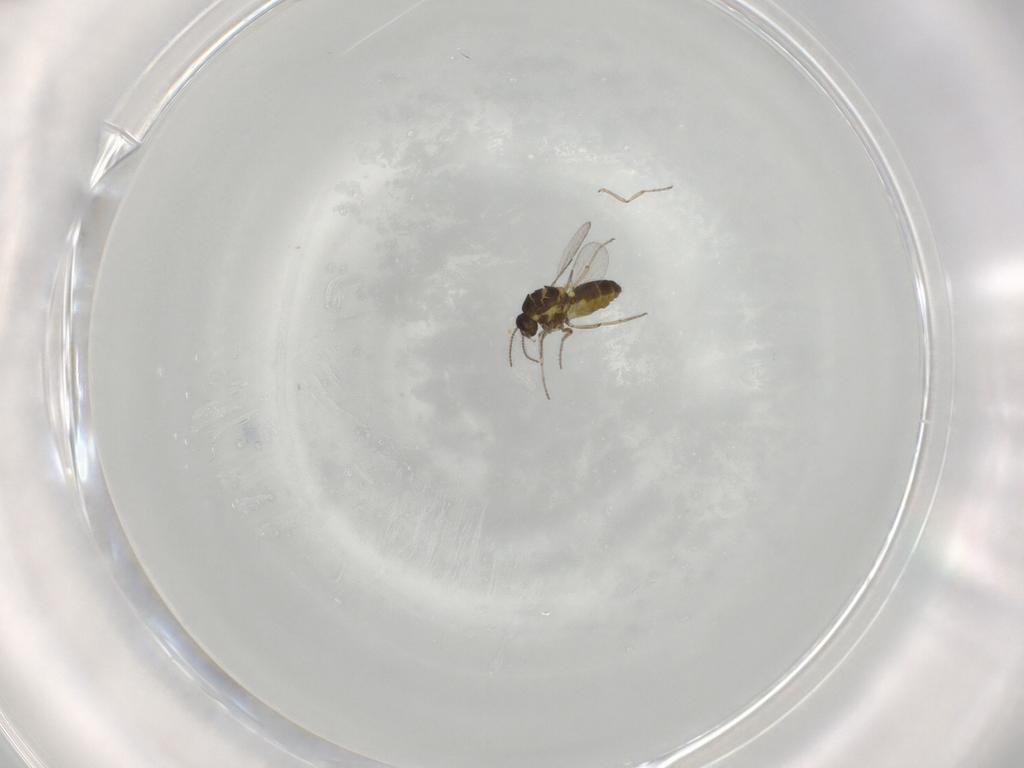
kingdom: Animalia
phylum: Arthropoda
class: Insecta
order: Diptera
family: Ceratopogonidae
